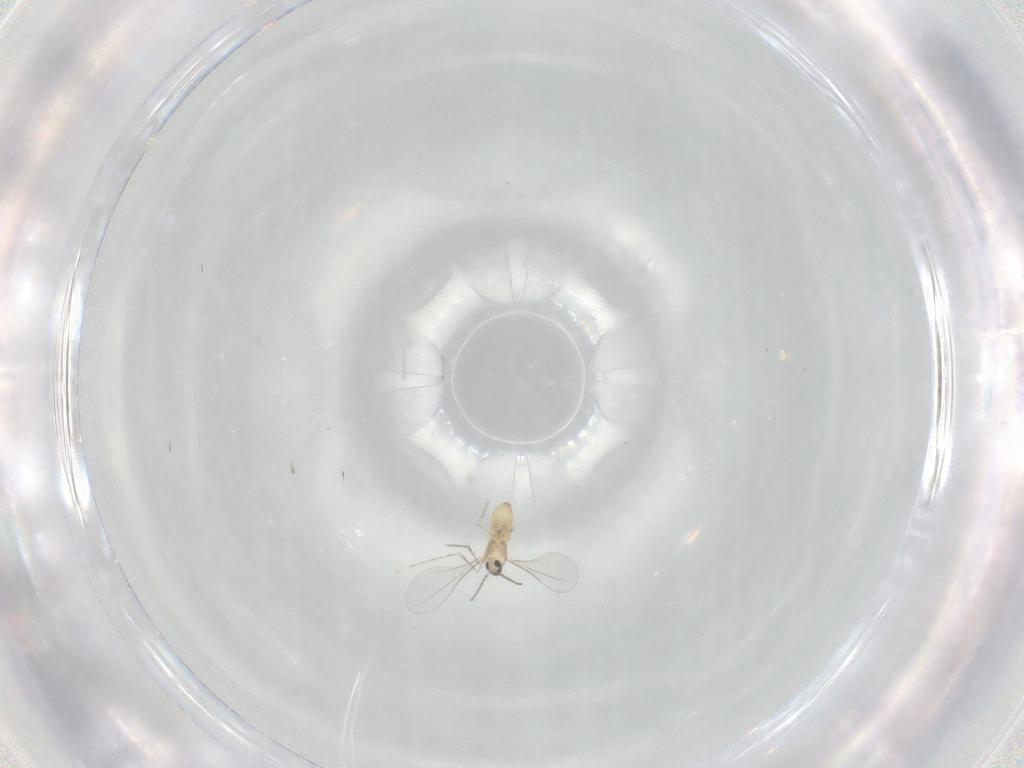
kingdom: Animalia
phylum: Arthropoda
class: Insecta
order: Diptera
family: Cecidomyiidae
